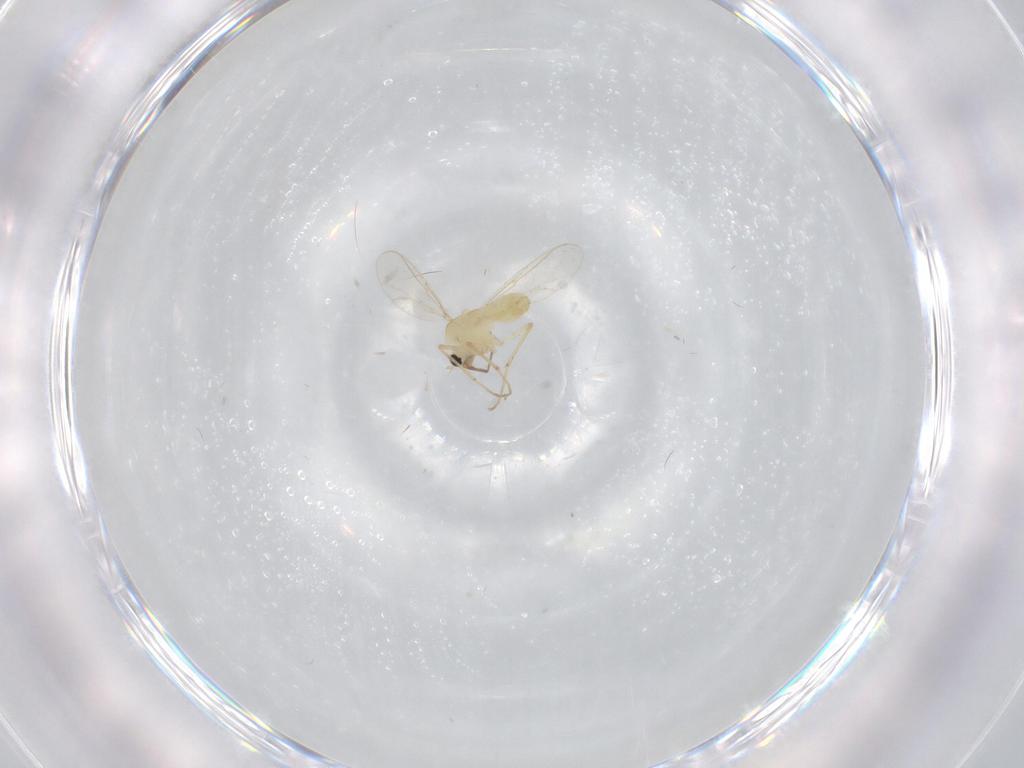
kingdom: Animalia
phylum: Arthropoda
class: Insecta
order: Diptera
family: Chironomidae
